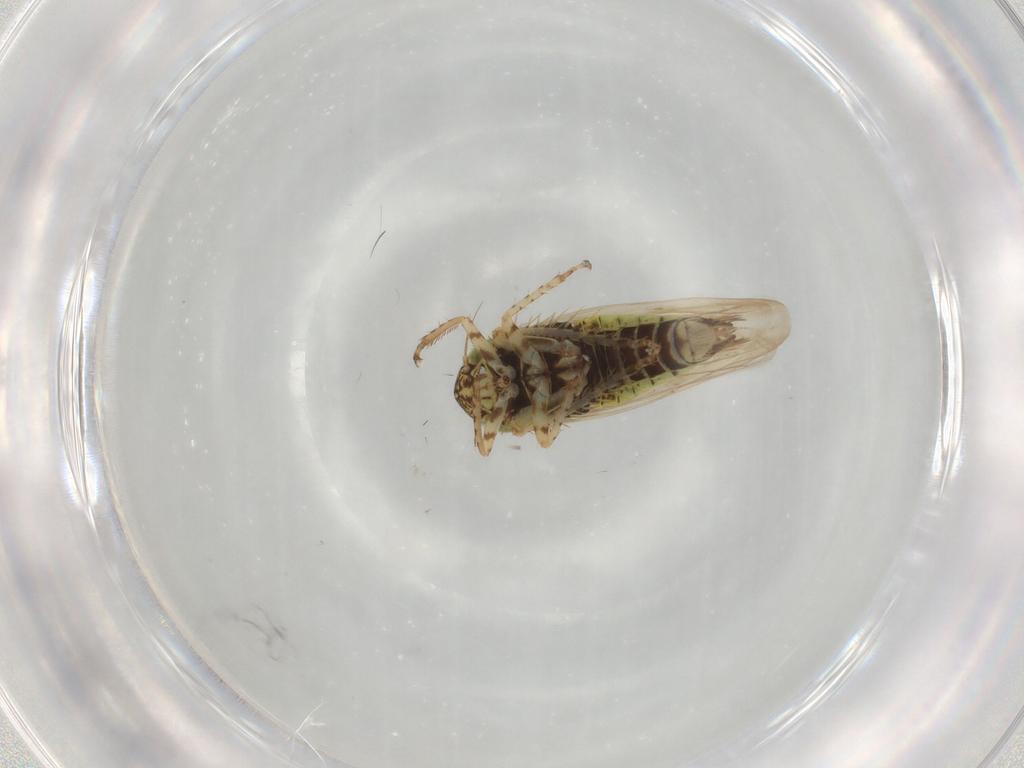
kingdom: Animalia
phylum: Arthropoda
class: Insecta
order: Hemiptera
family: Cicadellidae
